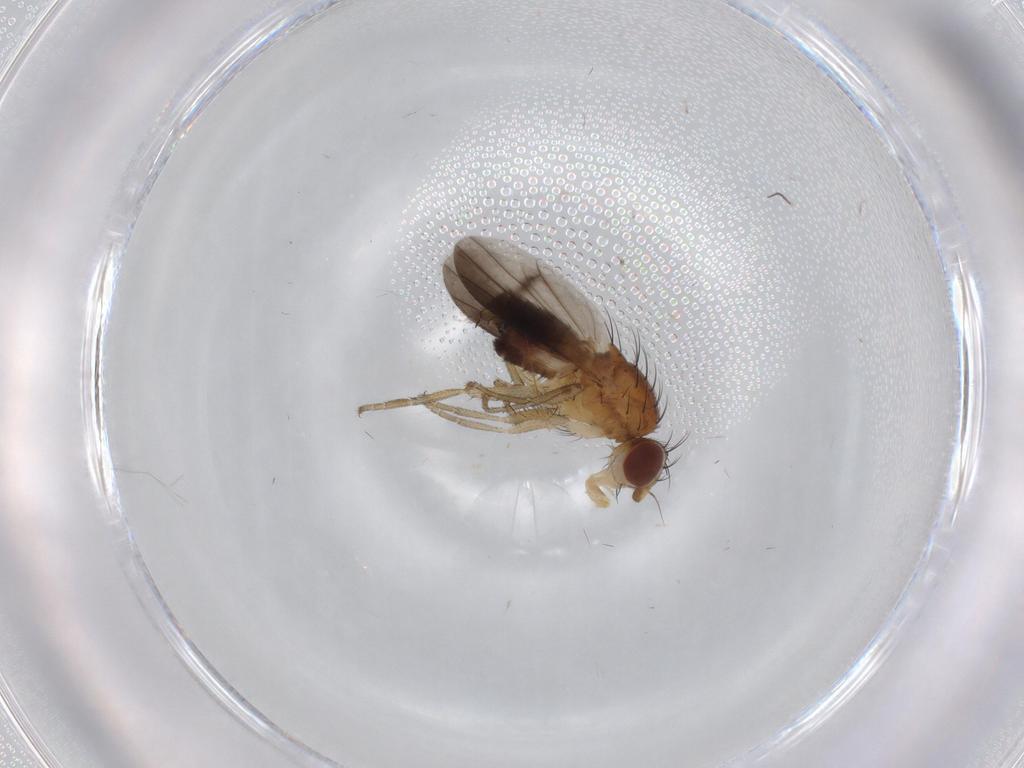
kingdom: Animalia
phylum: Arthropoda
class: Insecta
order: Diptera
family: Heleomyzidae
